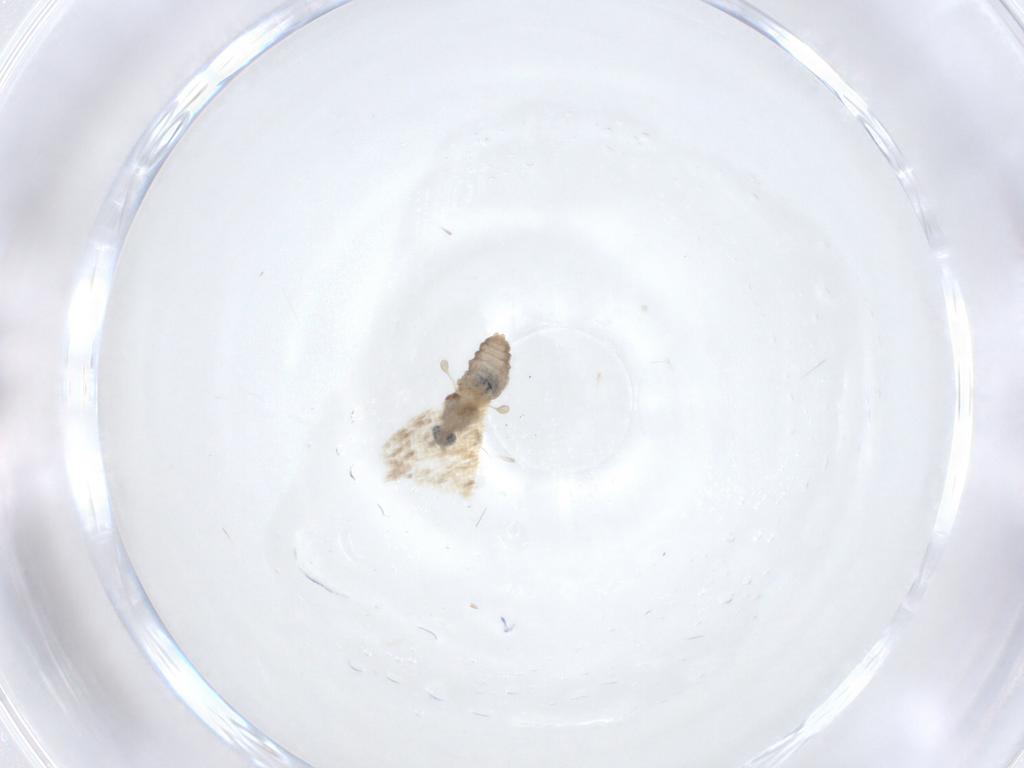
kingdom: Animalia
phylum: Arthropoda
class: Insecta
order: Diptera
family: Cecidomyiidae
